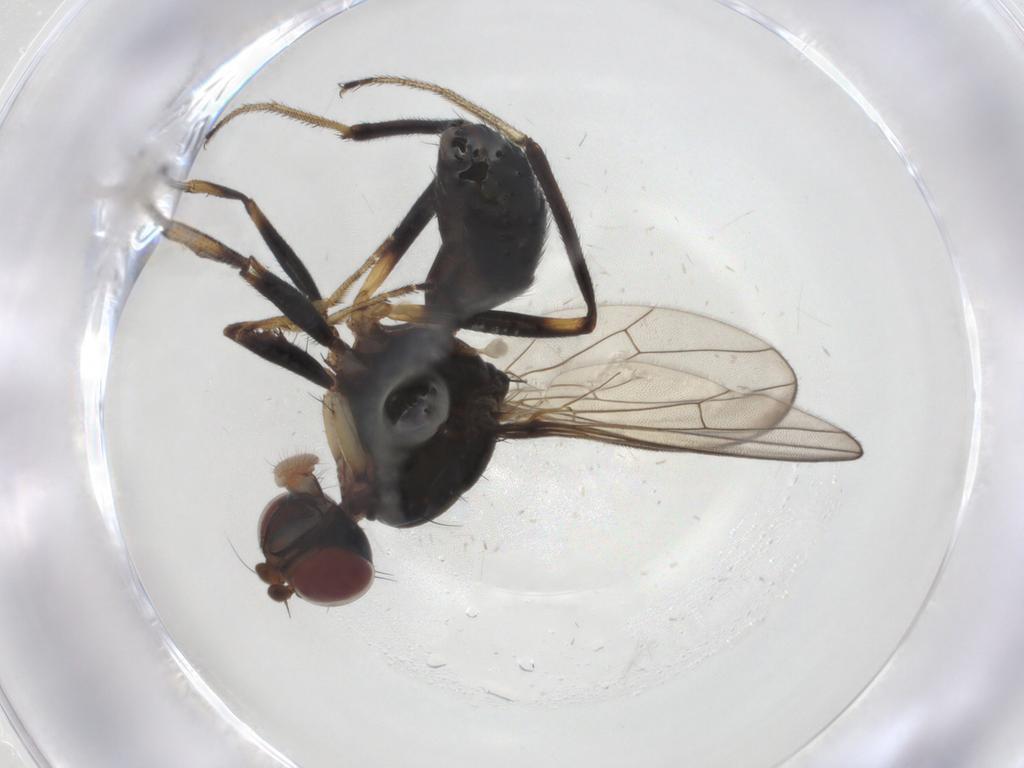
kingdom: Animalia
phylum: Arthropoda
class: Insecta
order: Diptera
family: Sepsidae
